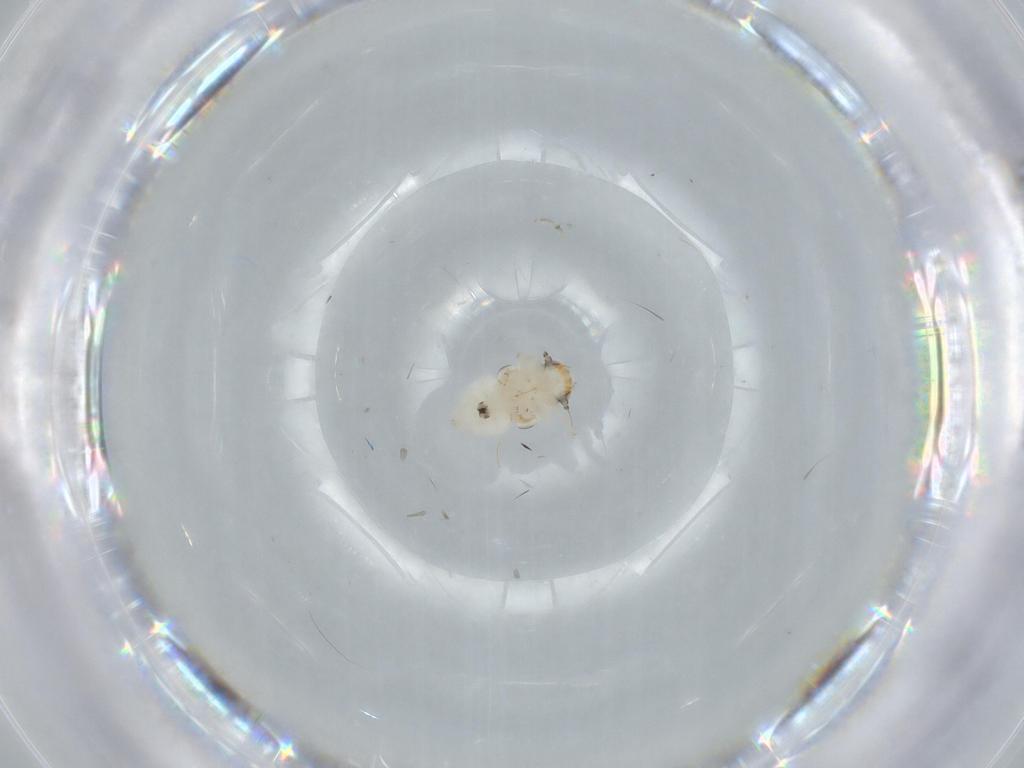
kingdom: Animalia
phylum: Arthropoda
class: Insecta
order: Hemiptera
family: Nogodinidae
